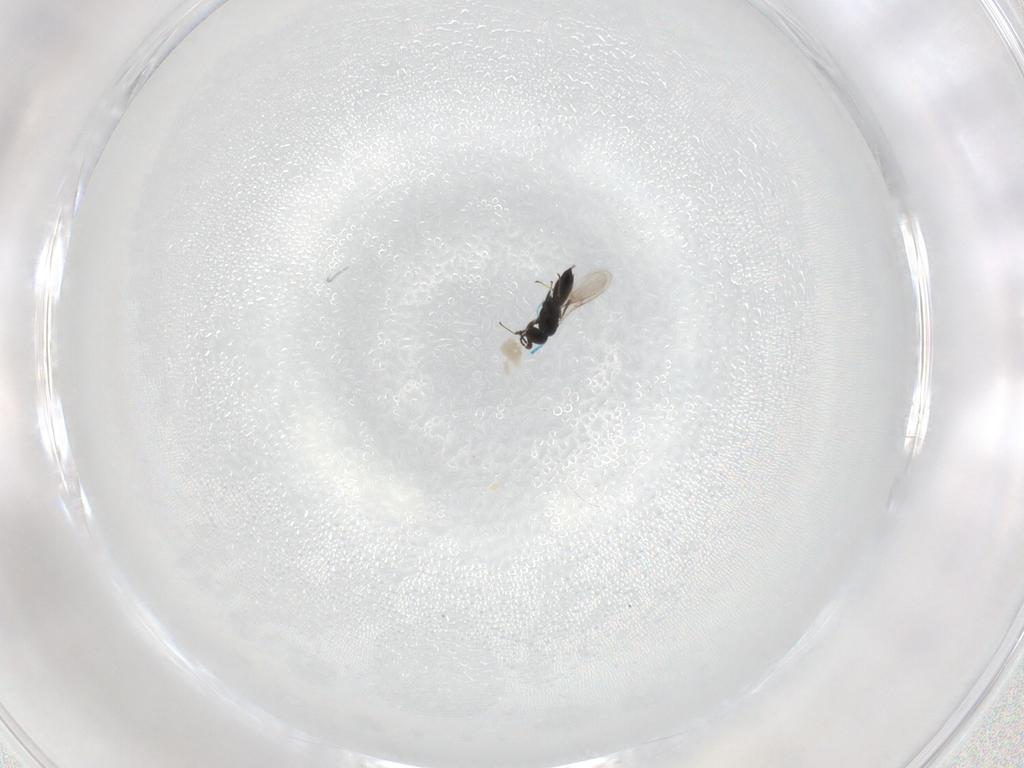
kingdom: Animalia
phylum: Arthropoda
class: Insecta
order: Hymenoptera
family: Scelionidae
